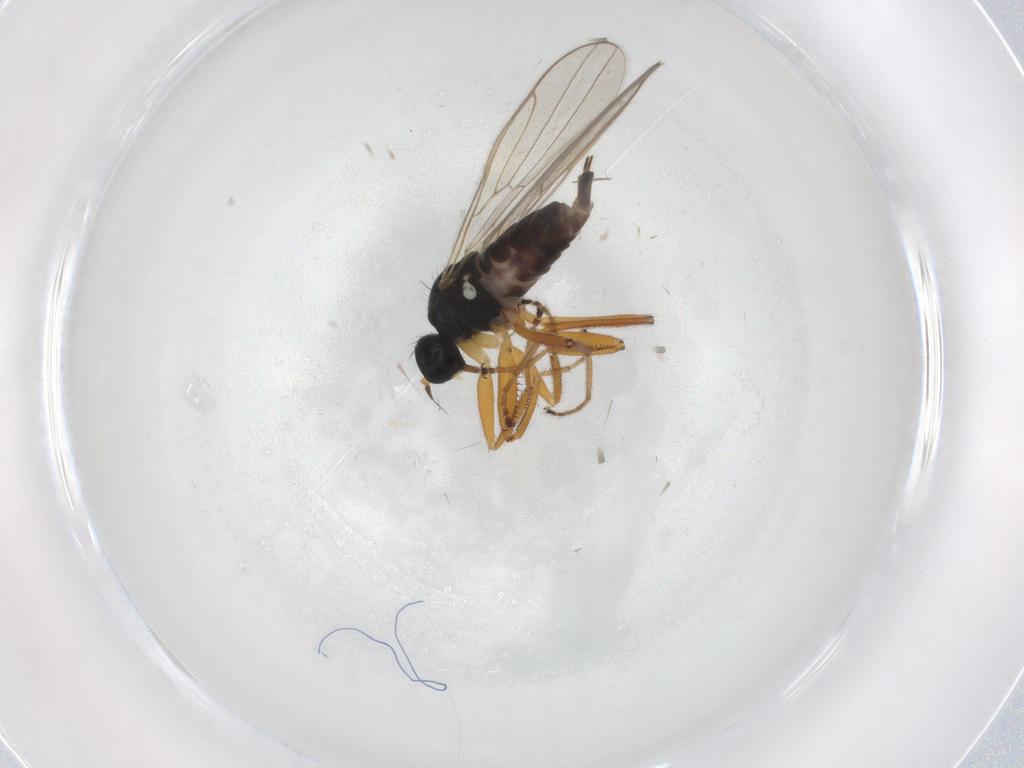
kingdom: Animalia
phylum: Arthropoda
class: Insecta
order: Diptera
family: Hybotidae
